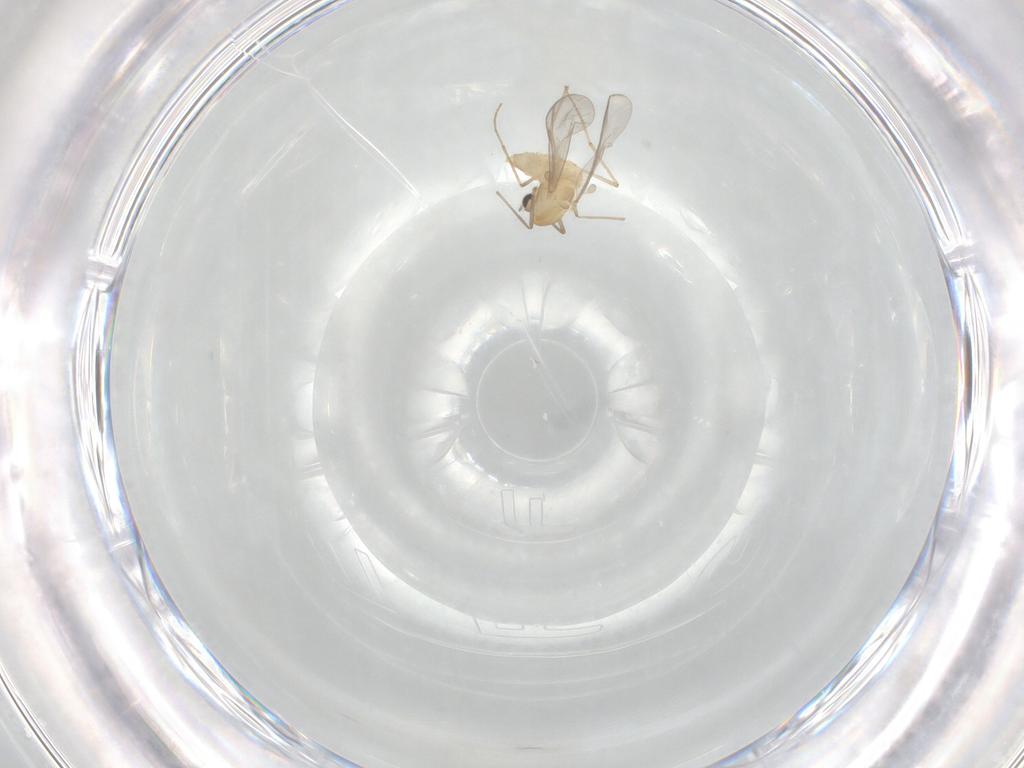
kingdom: Animalia
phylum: Arthropoda
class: Insecta
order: Diptera
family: Chironomidae
